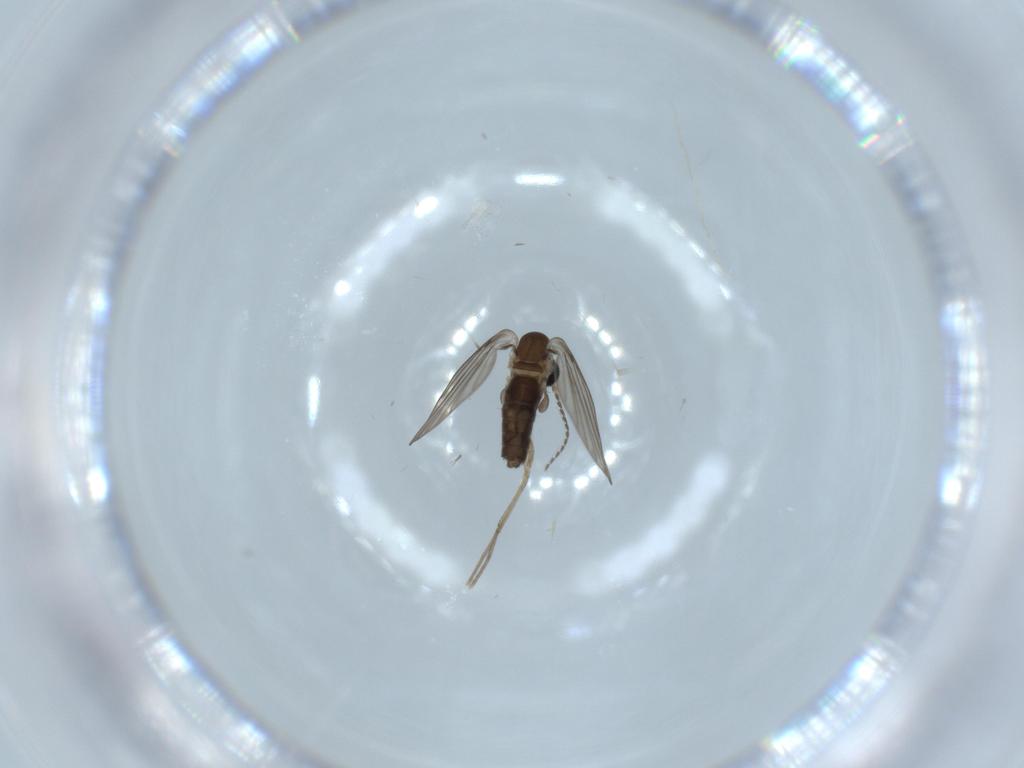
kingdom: Animalia
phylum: Arthropoda
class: Insecta
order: Diptera
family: Psychodidae
